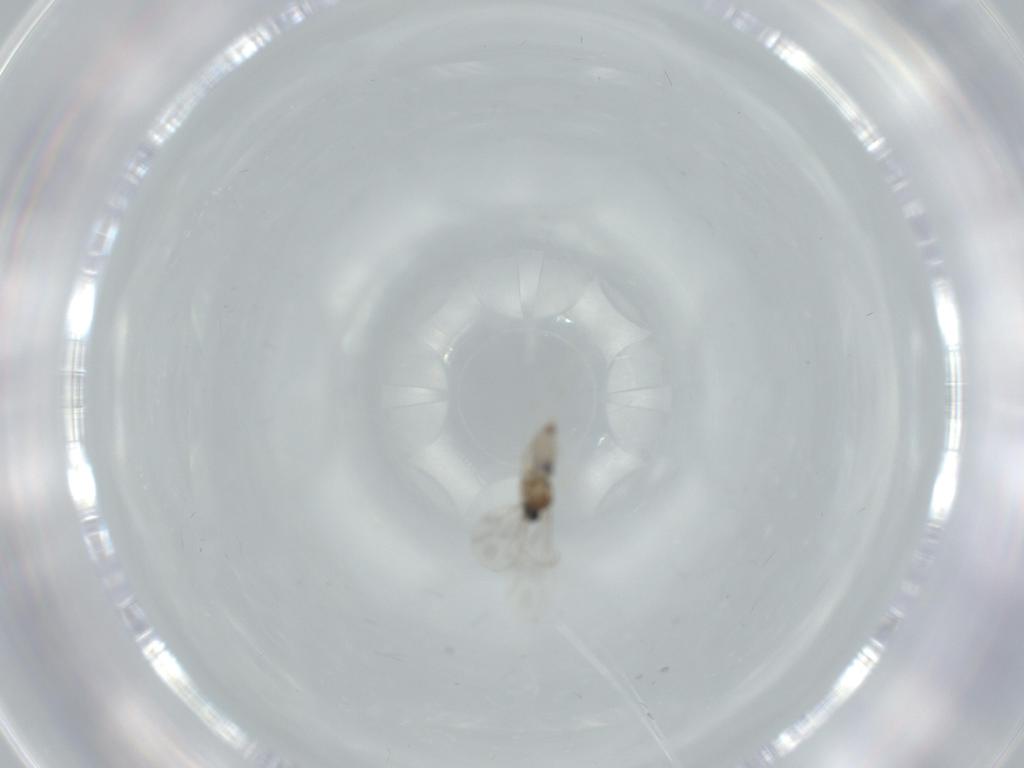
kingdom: Animalia
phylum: Arthropoda
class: Insecta
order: Diptera
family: Cecidomyiidae
